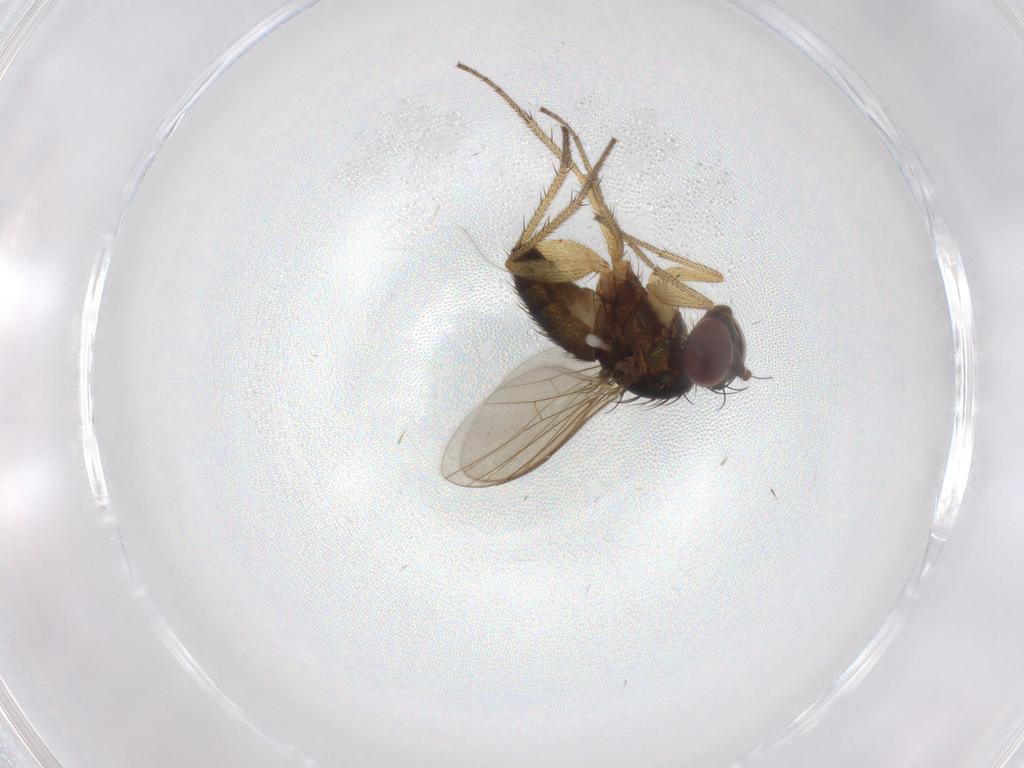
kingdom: Animalia
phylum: Arthropoda
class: Insecta
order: Diptera
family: Dolichopodidae
